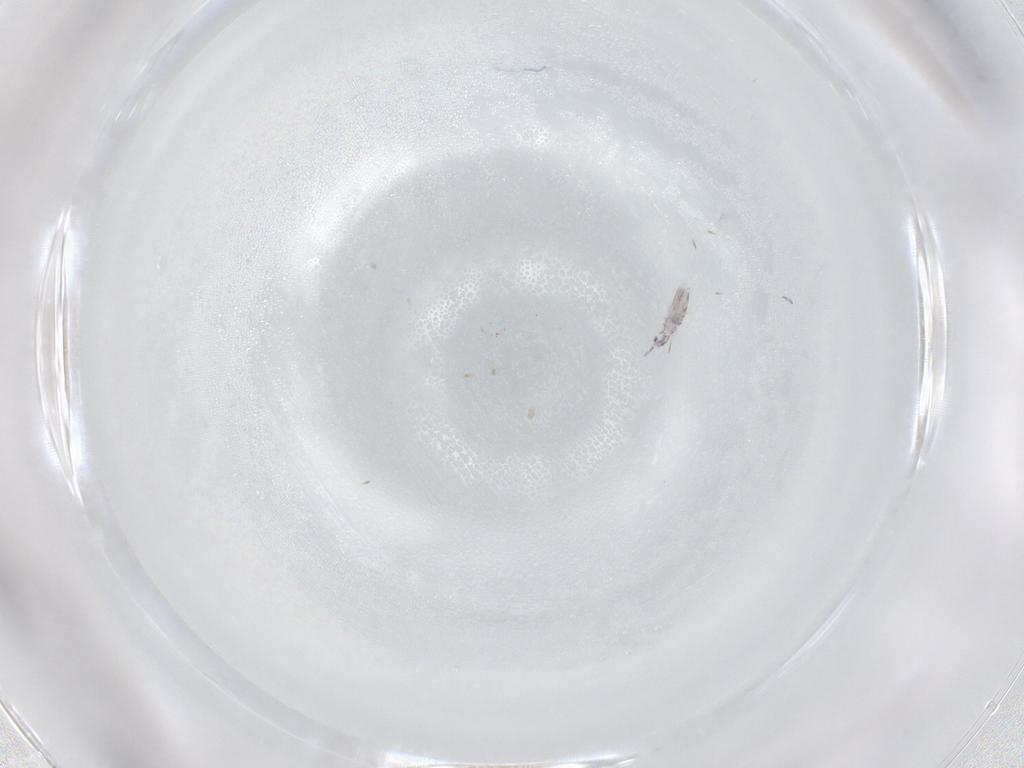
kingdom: Animalia
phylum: Arthropoda
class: Collembola
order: Entomobryomorpha
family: Entomobryidae
